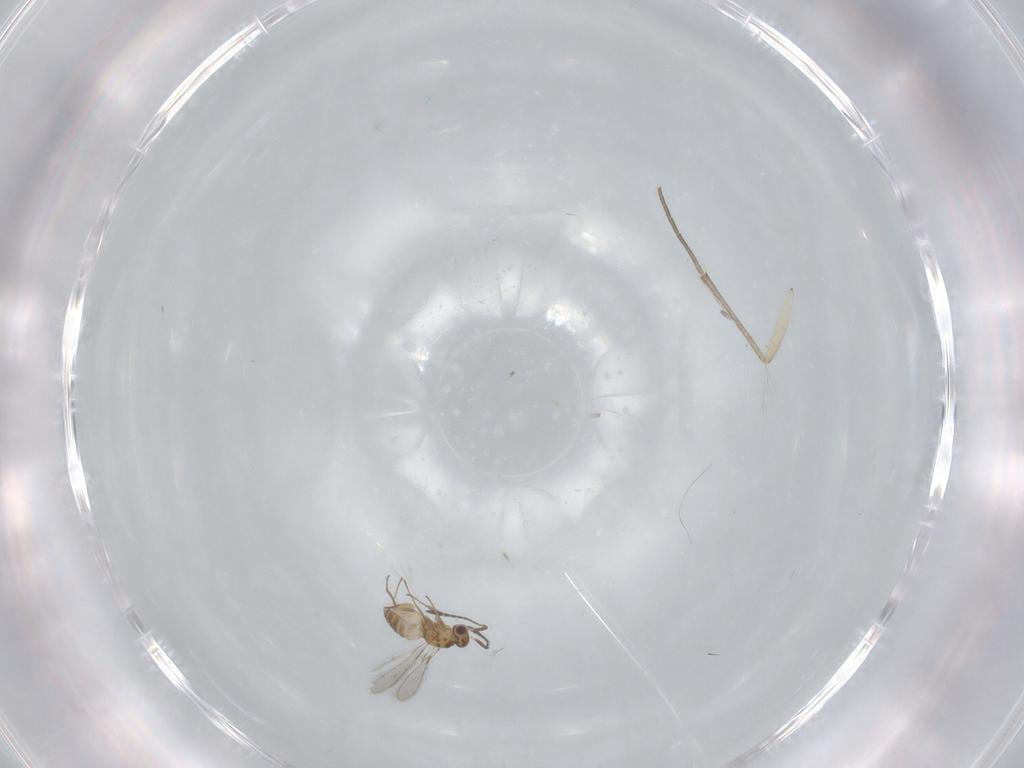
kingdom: Animalia
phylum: Arthropoda
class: Insecta
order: Hymenoptera
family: Mymaridae
